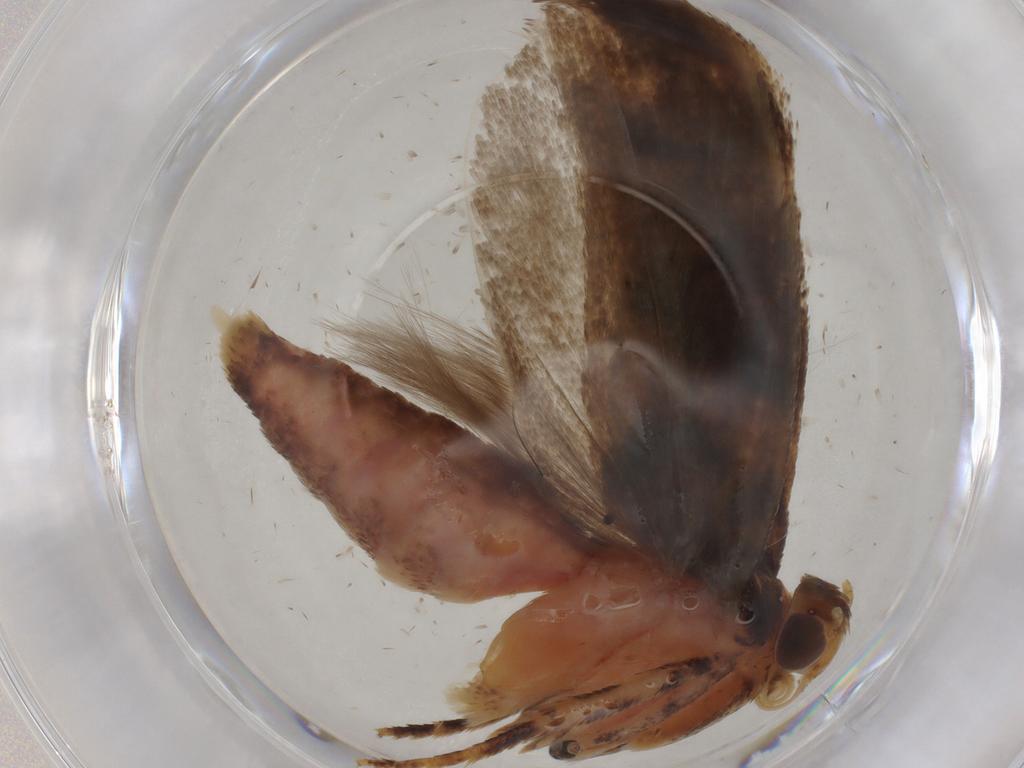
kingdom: Animalia
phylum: Arthropoda
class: Insecta
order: Lepidoptera
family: Gelechiidae
